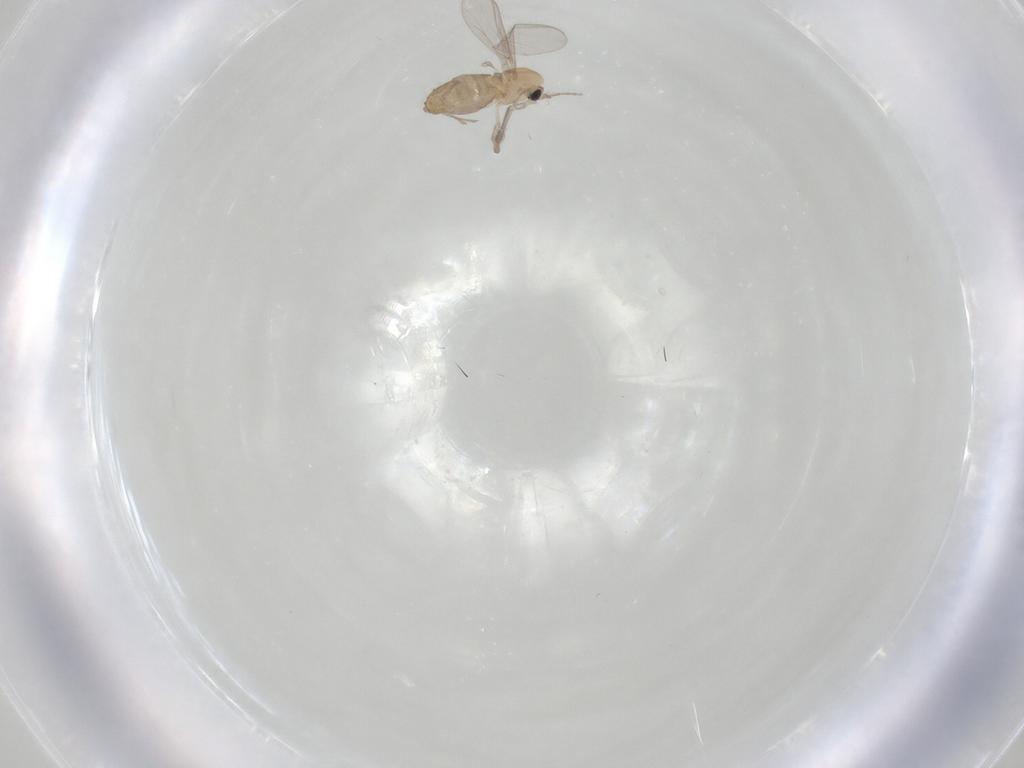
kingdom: Animalia
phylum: Arthropoda
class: Insecta
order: Diptera
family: Chironomidae
